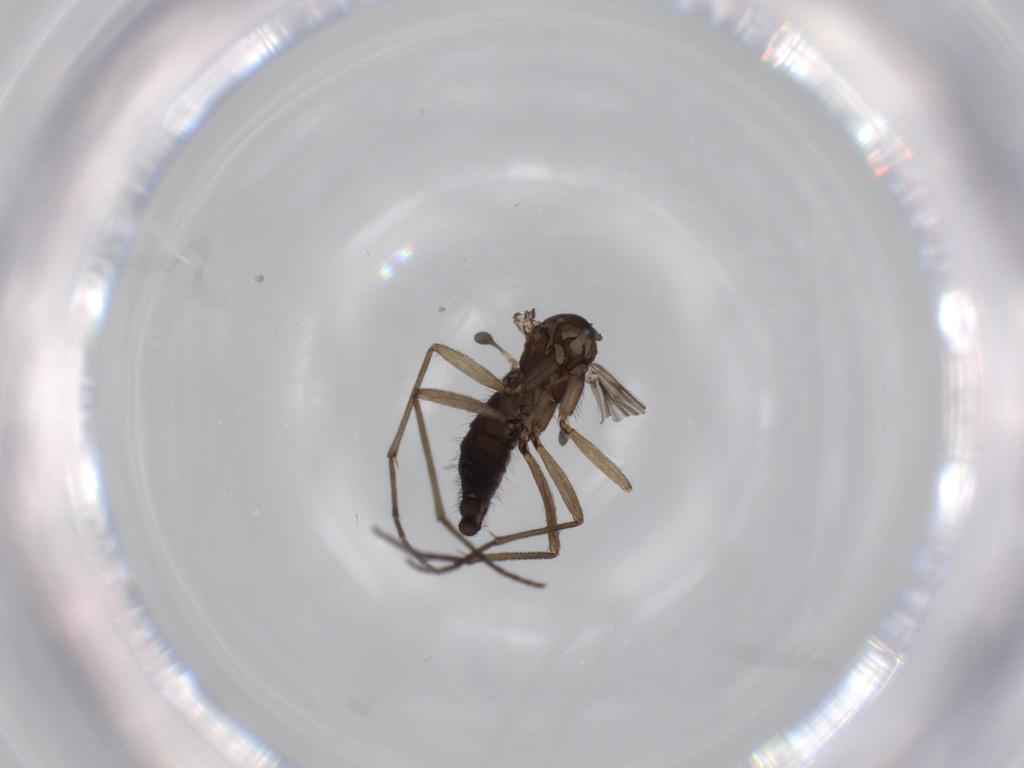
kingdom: Animalia
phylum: Arthropoda
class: Insecta
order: Diptera
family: Sciaridae
